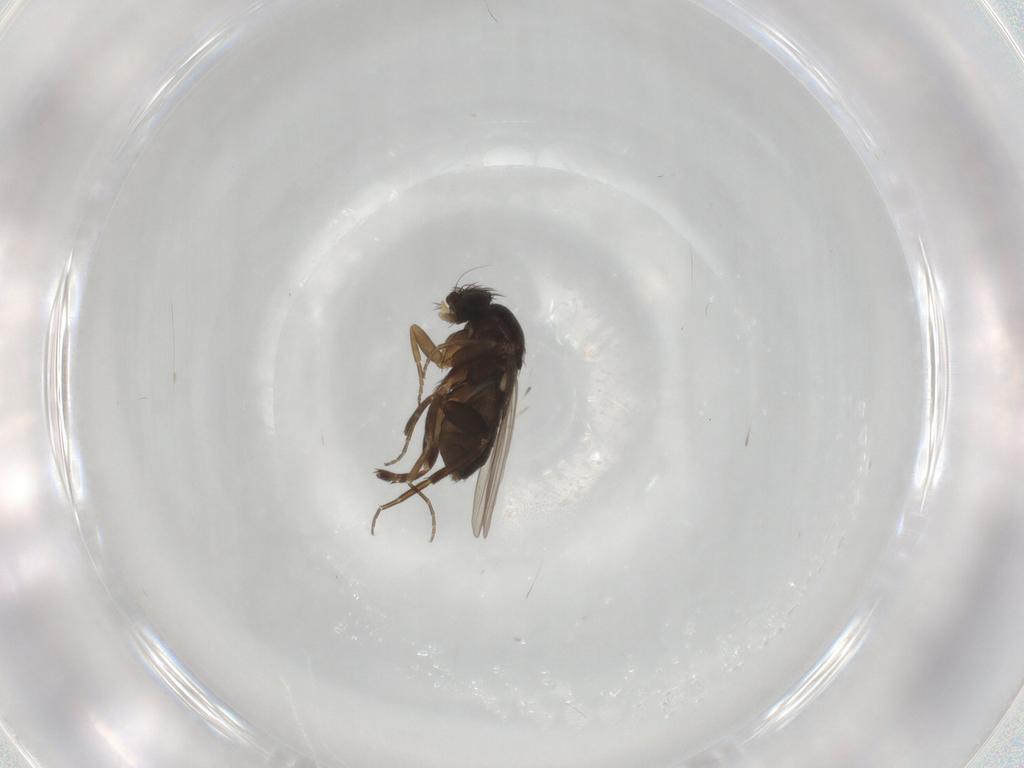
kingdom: Animalia
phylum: Arthropoda
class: Insecta
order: Diptera
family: Phoridae
